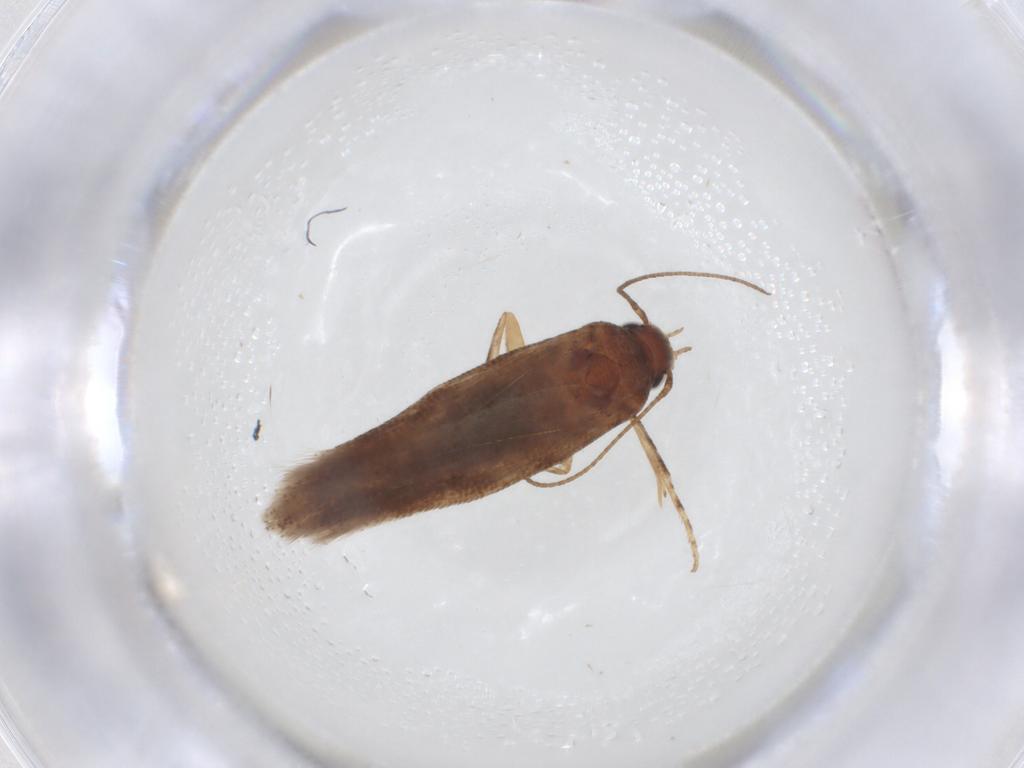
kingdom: Animalia
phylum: Arthropoda
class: Insecta
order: Lepidoptera
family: Gelechiidae
